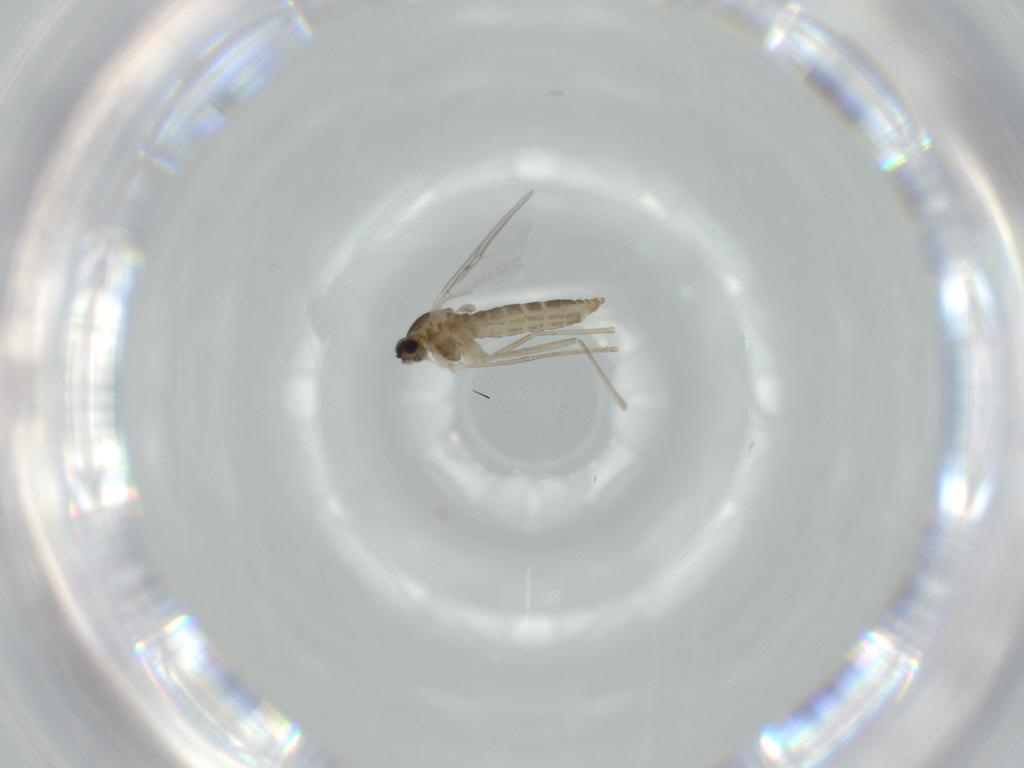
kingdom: Animalia
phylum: Arthropoda
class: Insecta
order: Diptera
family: Cecidomyiidae
